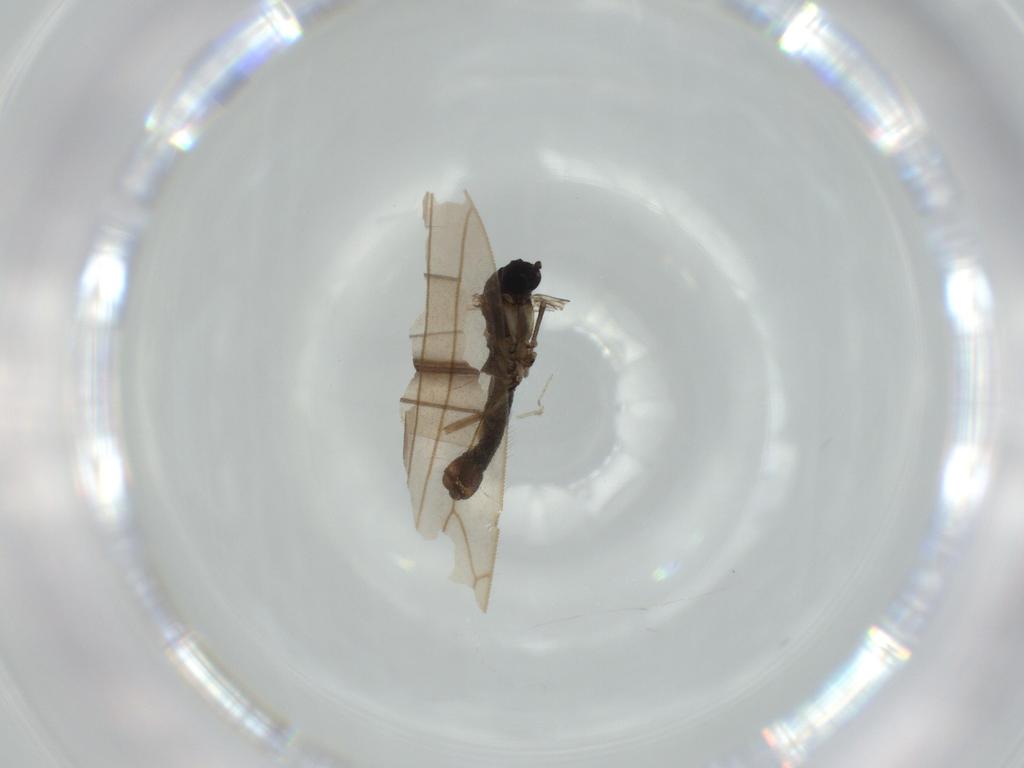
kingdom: Animalia
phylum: Arthropoda
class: Insecta
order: Diptera
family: Sciaridae
